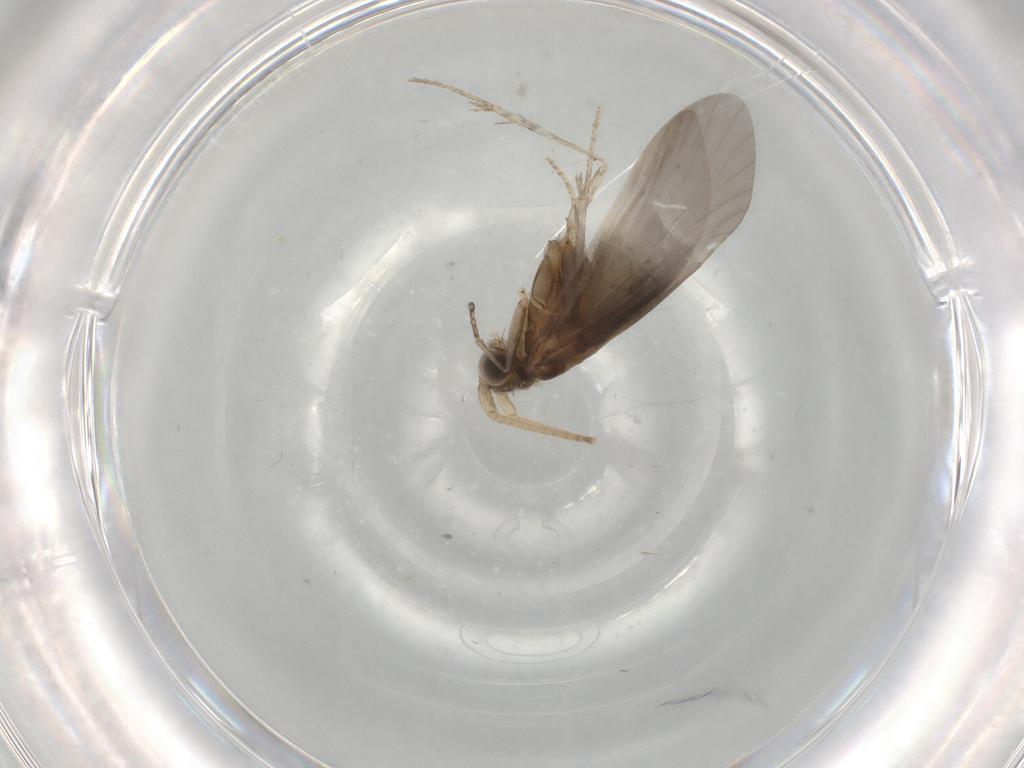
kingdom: Animalia
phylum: Arthropoda
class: Insecta
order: Trichoptera
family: Helicopsychidae
